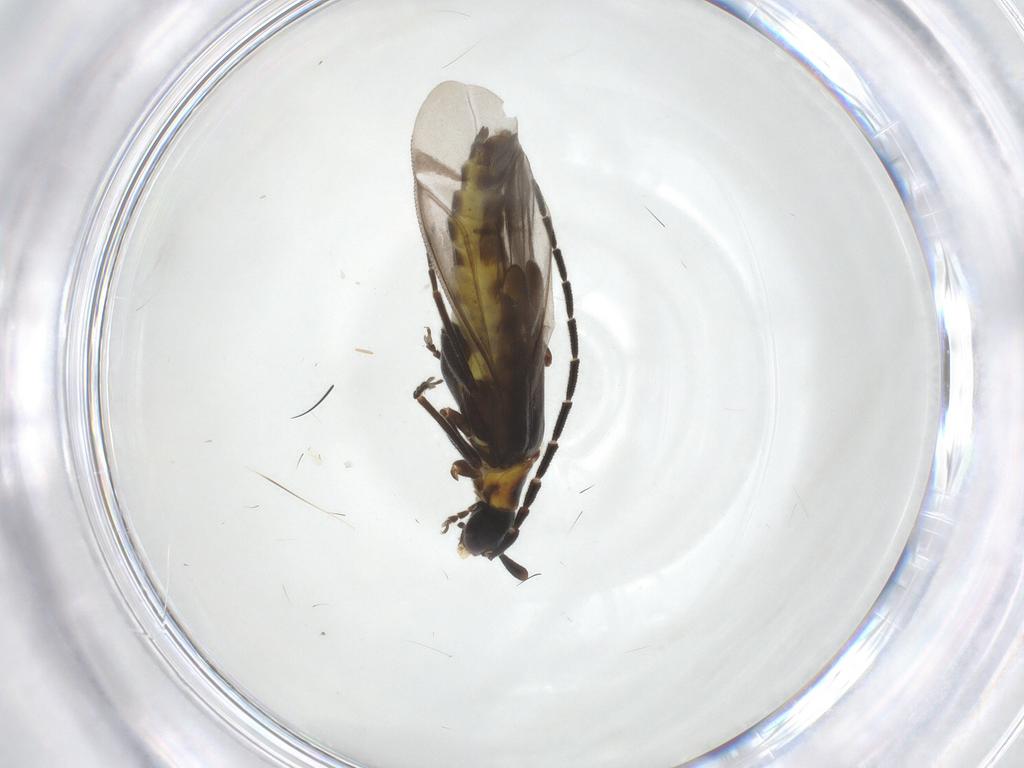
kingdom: Animalia
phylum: Arthropoda
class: Insecta
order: Coleoptera
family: Cantharidae
